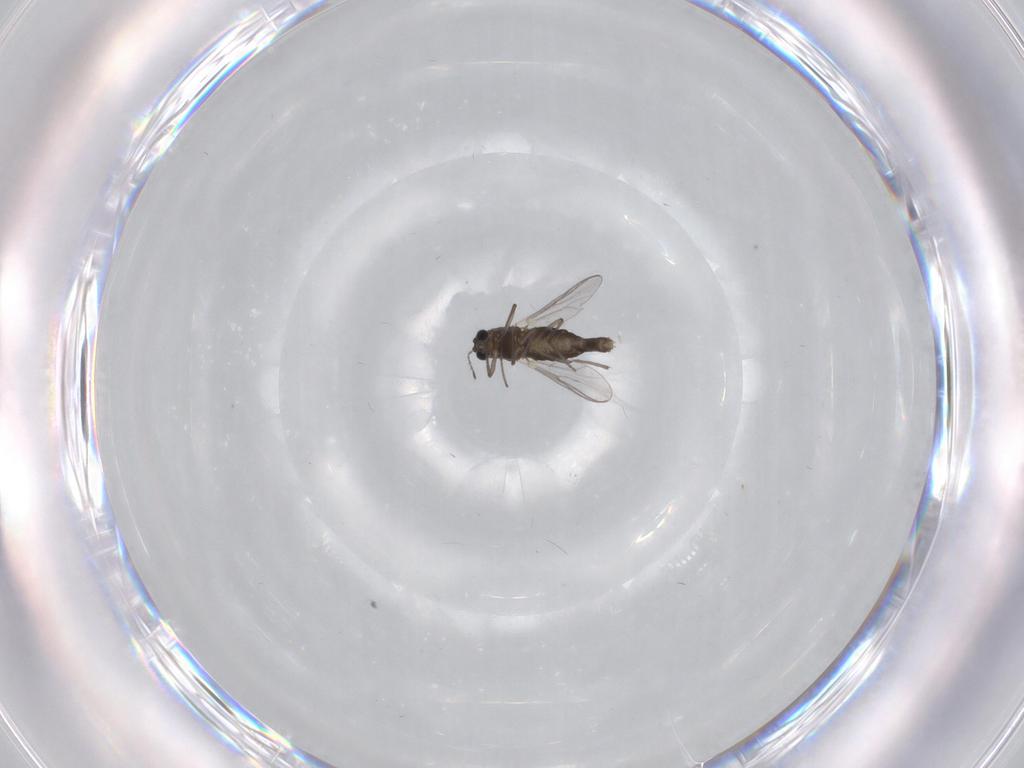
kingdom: Animalia
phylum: Arthropoda
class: Insecta
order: Diptera
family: Chironomidae
